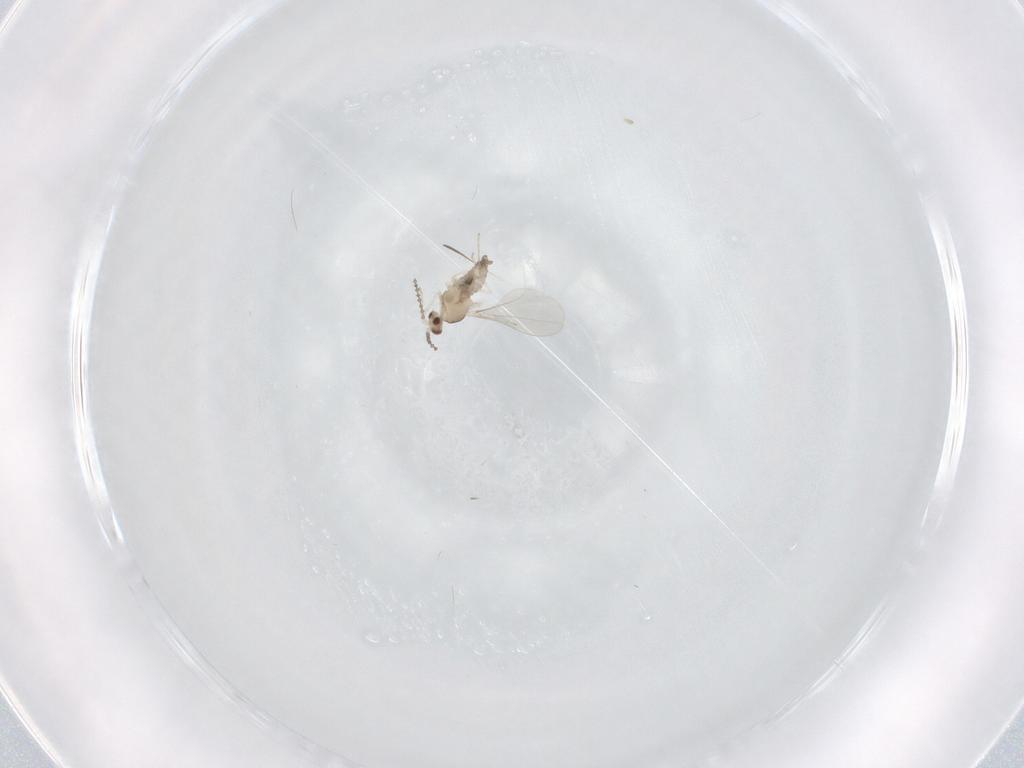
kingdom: Animalia
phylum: Arthropoda
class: Insecta
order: Diptera
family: Cecidomyiidae
